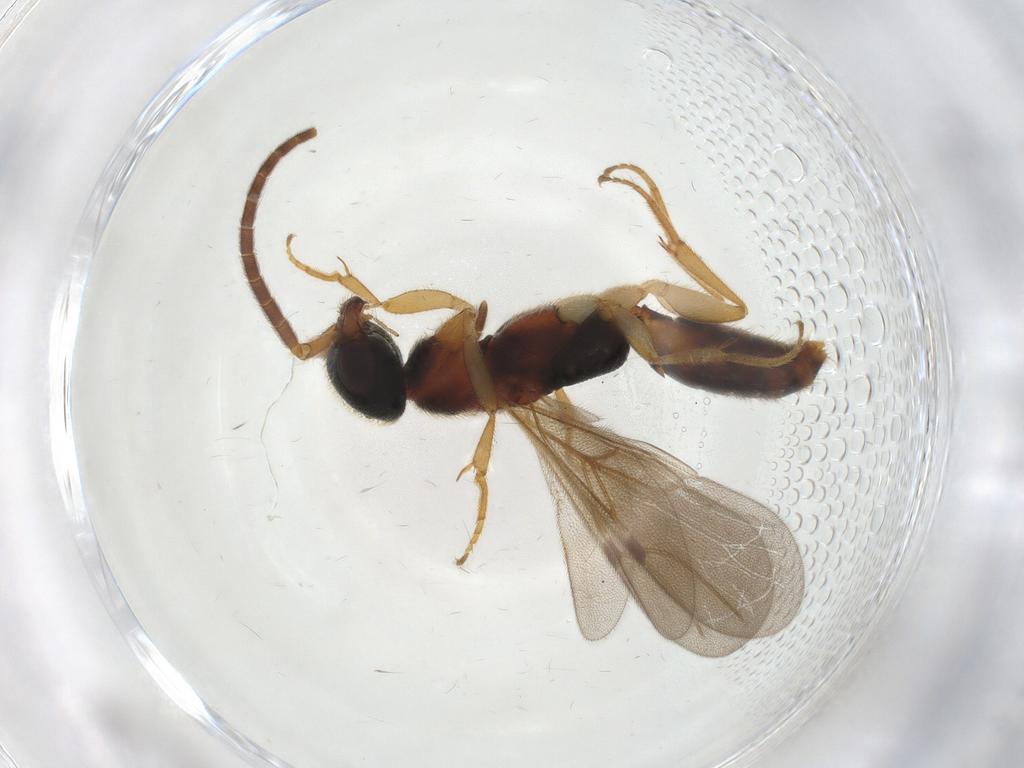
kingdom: Animalia
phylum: Arthropoda
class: Insecta
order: Hymenoptera
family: Bethylidae
